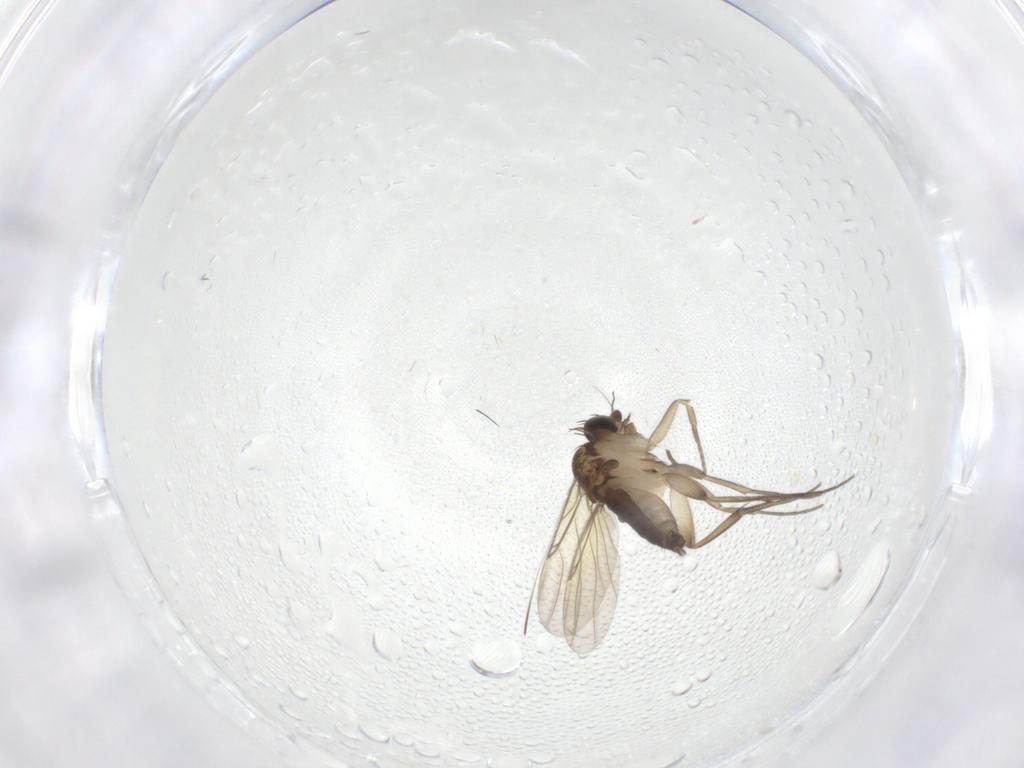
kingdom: Animalia
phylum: Arthropoda
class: Insecta
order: Diptera
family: Phoridae
